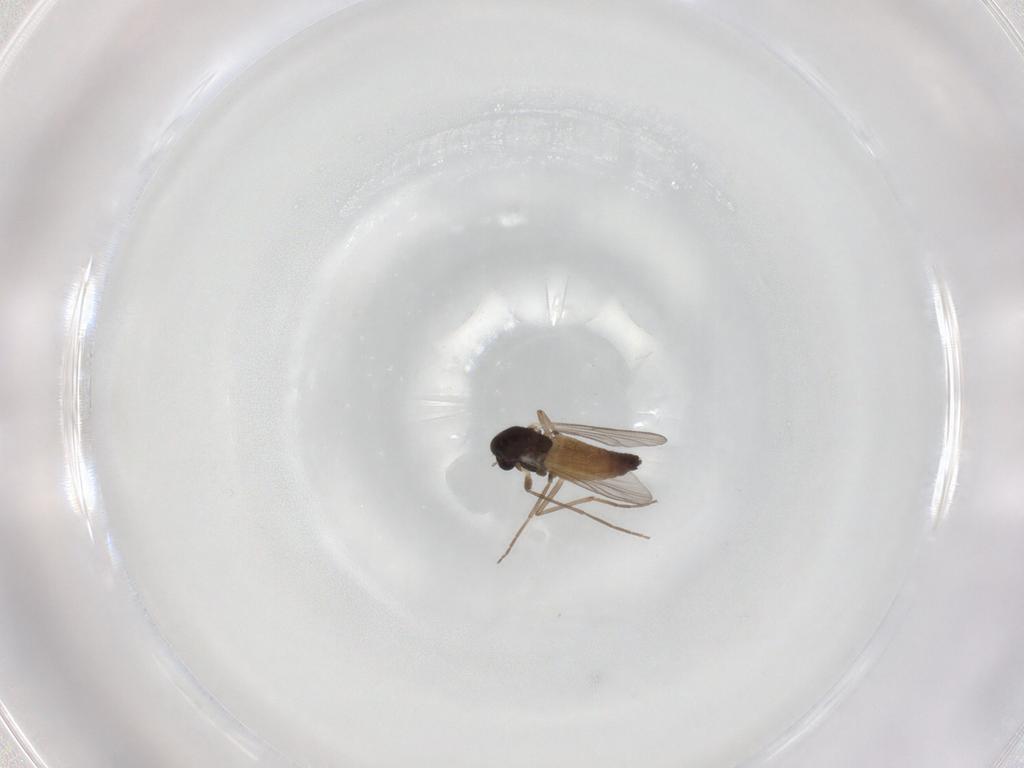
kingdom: Animalia
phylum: Arthropoda
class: Insecta
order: Diptera
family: Chironomidae
